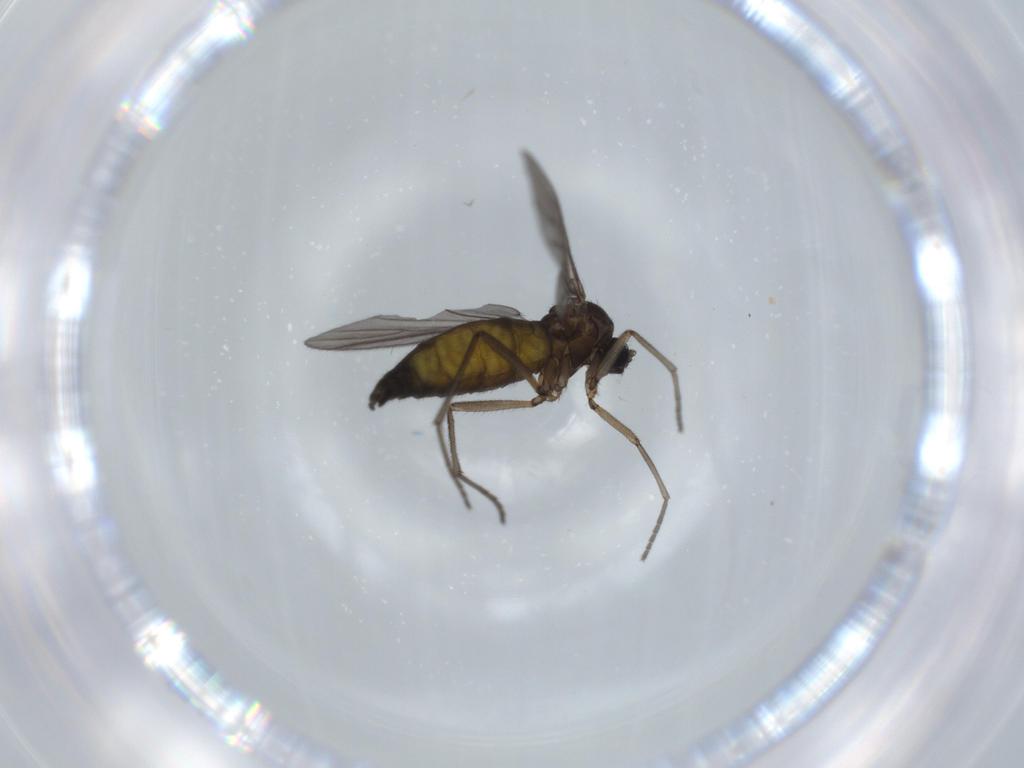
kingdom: Animalia
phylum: Arthropoda
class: Insecta
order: Diptera
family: Sciaridae
